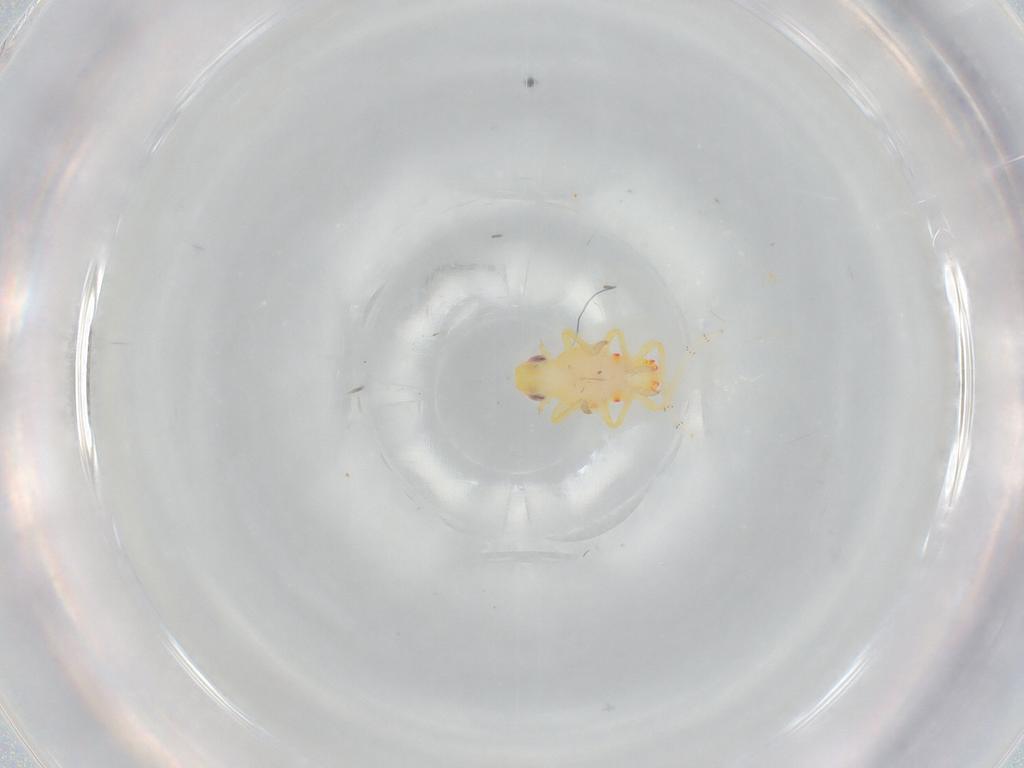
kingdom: Animalia
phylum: Arthropoda
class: Insecta
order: Hemiptera
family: Tropiduchidae
